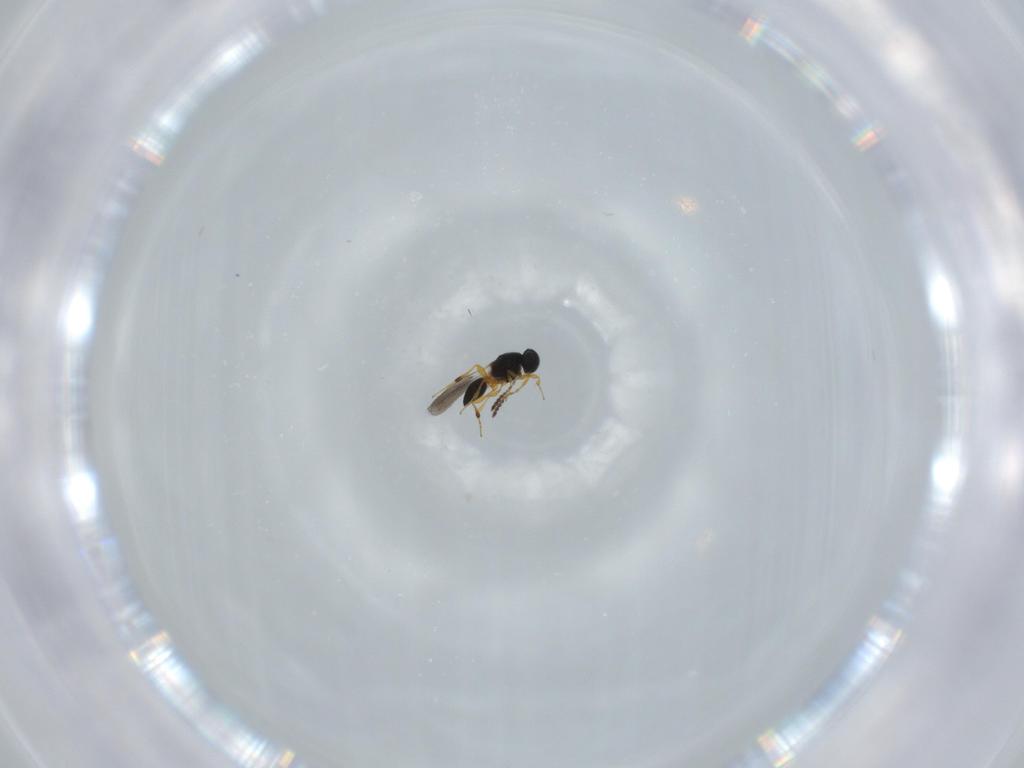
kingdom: Animalia
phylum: Arthropoda
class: Insecta
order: Hymenoptera
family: Platygastridae
